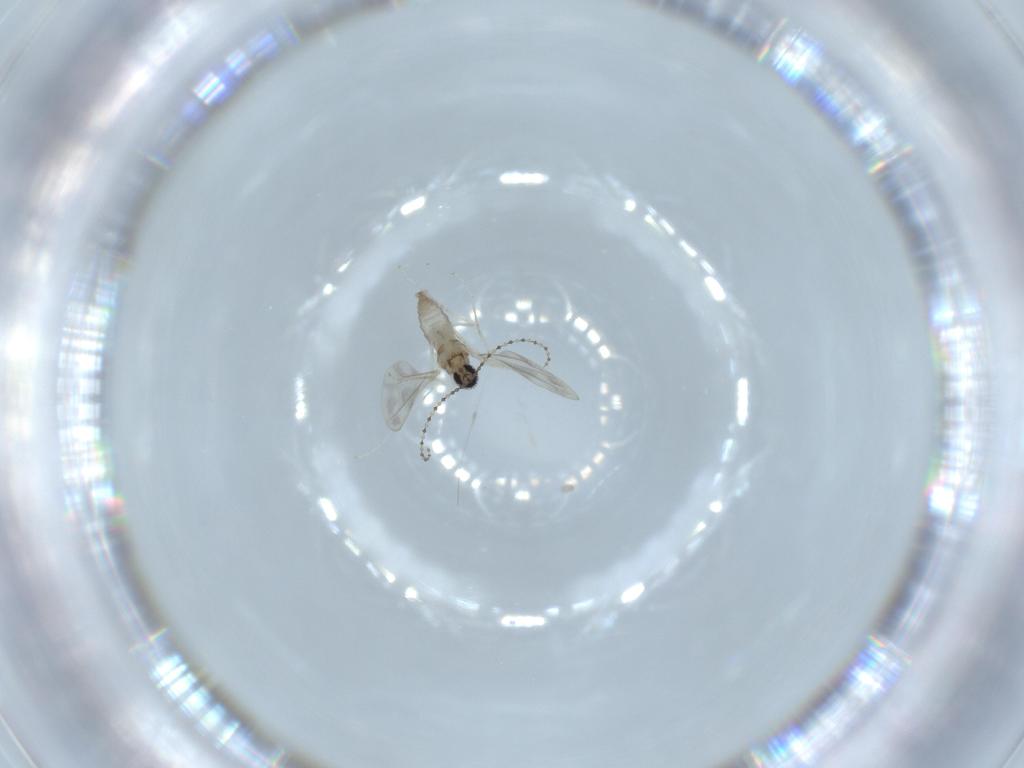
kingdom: Animalia
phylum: Arthropoda
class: Insecta
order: Diptera
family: Cecidomyiidae
